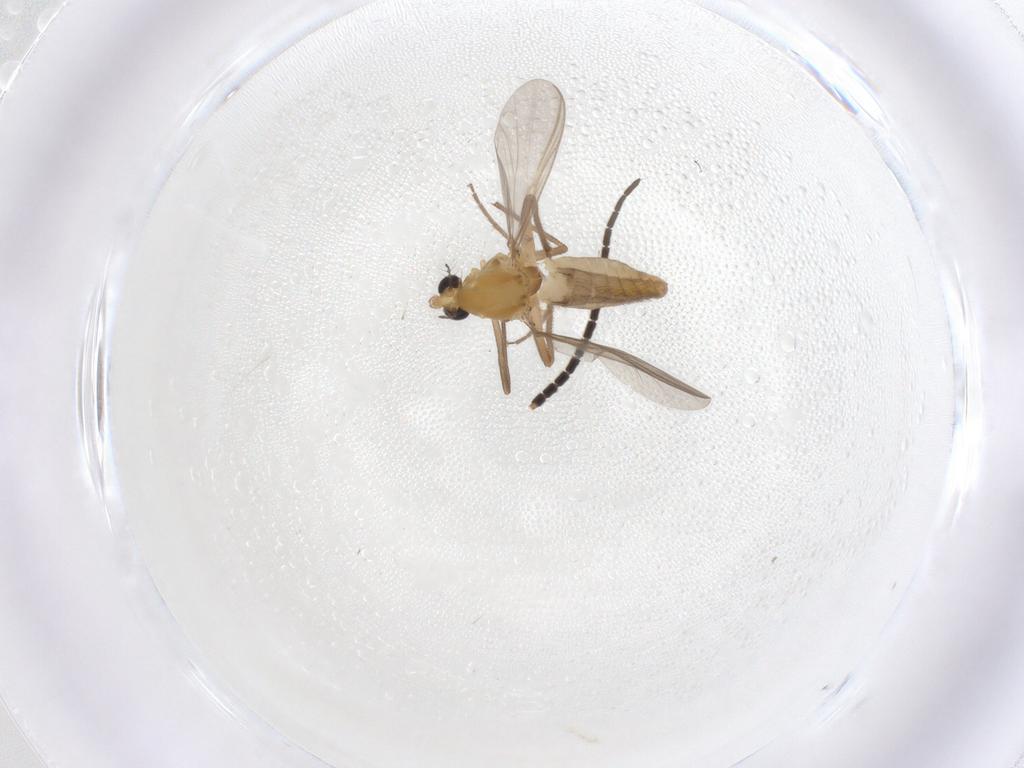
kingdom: Animalia
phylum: Arthropoda
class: Insecta
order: Diptera
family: Chironomidae
